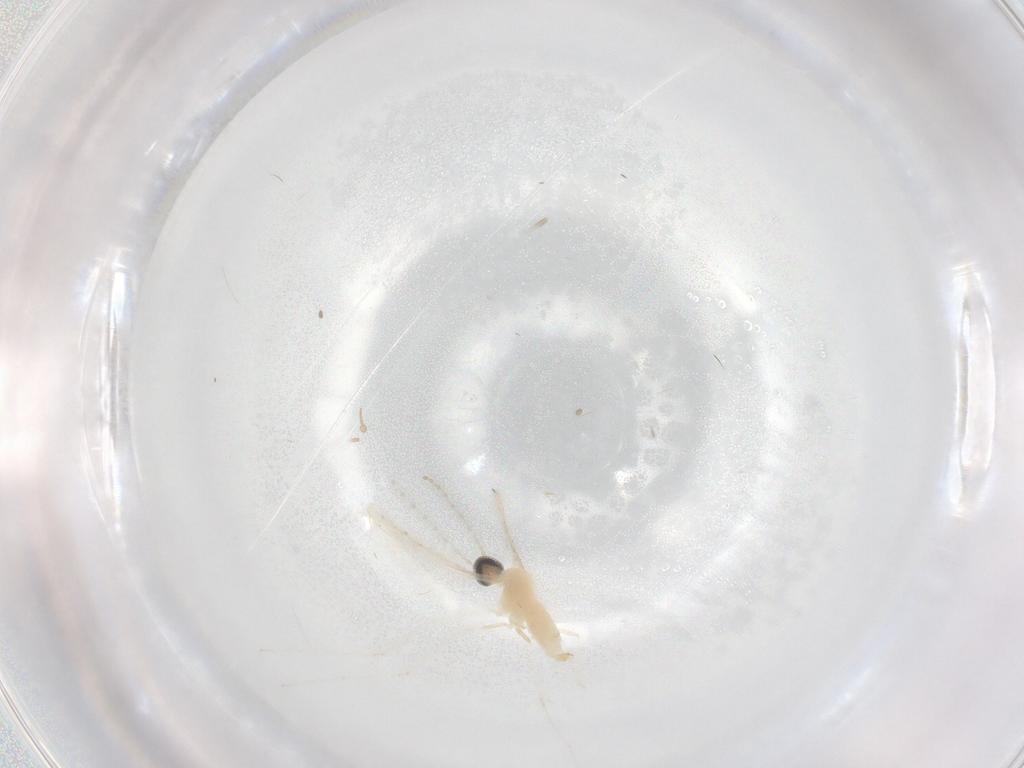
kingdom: Animalia
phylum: Arthropoda
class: Insecta
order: Diptera
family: Cecidomyiidae
